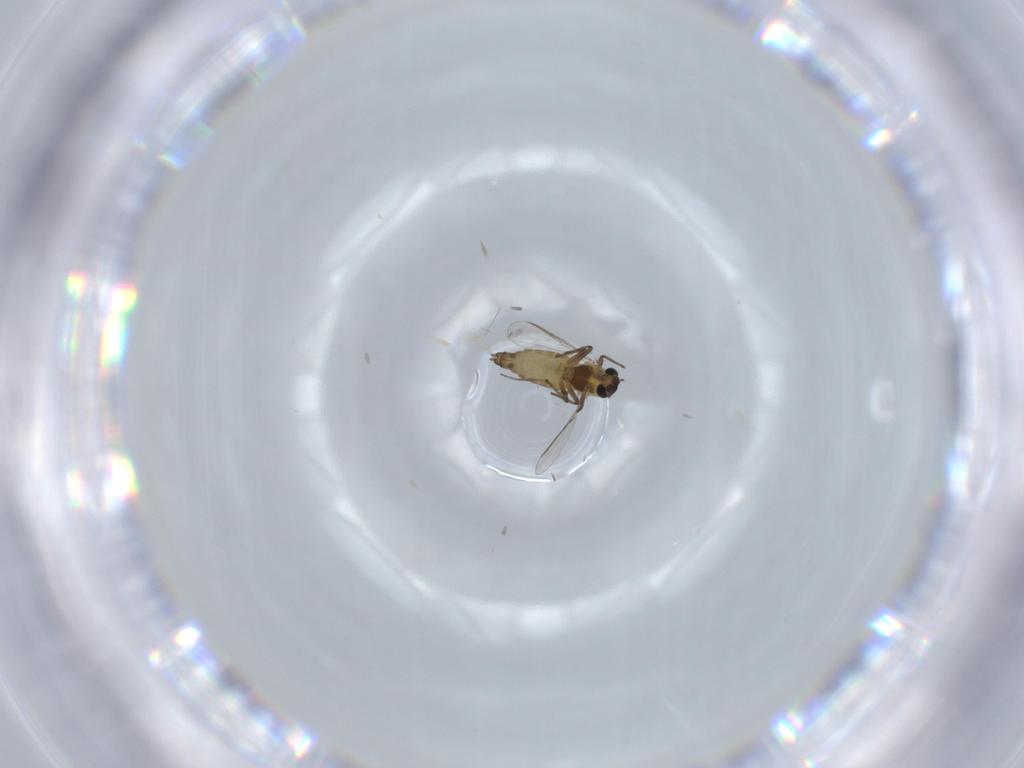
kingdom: Animalia
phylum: Arthropoda
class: Insecta
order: Diptera
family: Chironomidae
